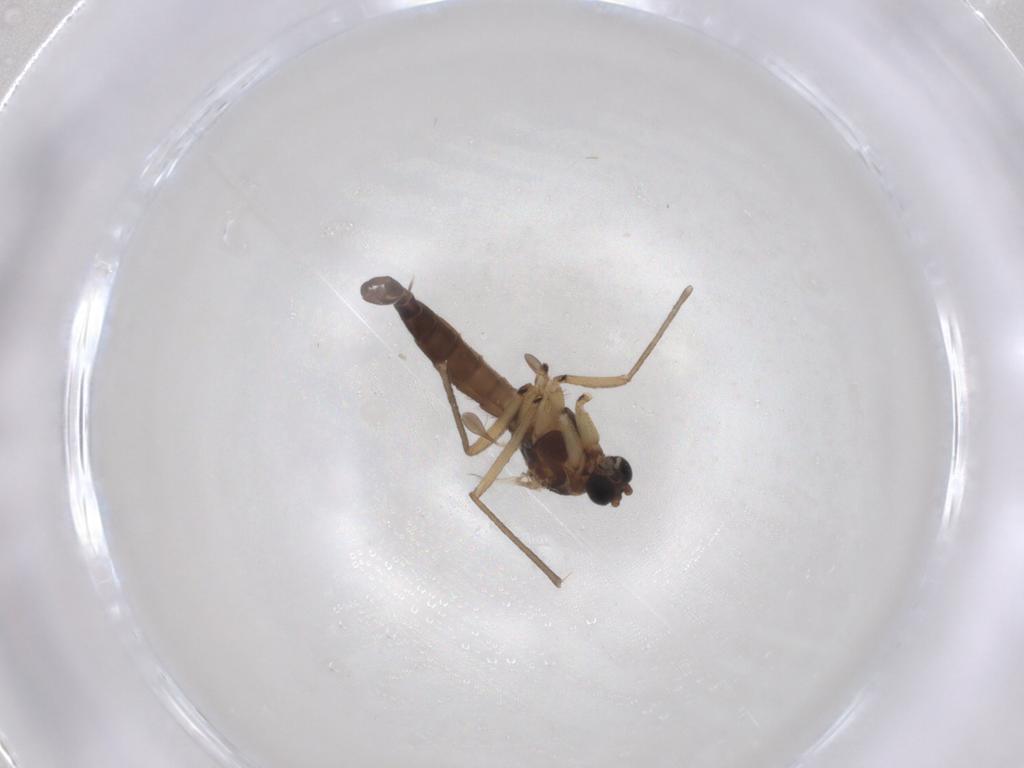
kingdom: Animalia
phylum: Arthropoda
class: Insecta
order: Diptera
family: Sciaridae
